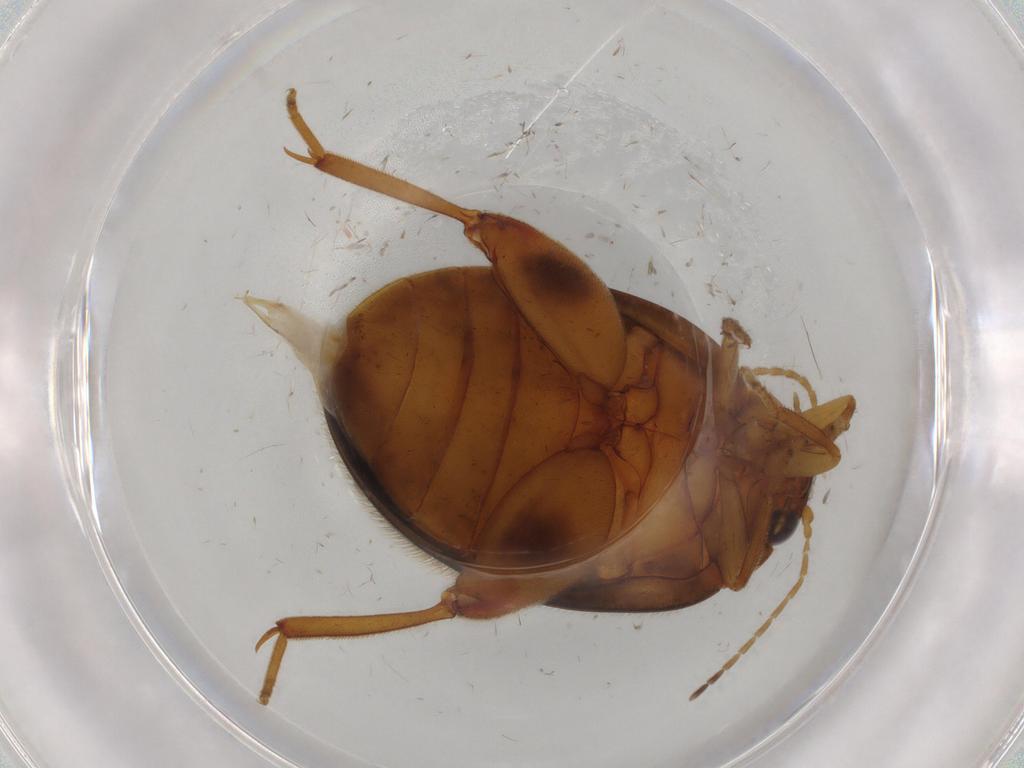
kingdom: Animalia
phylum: Arthropoda
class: Insecta
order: Coleoptera
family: Scirtidae
